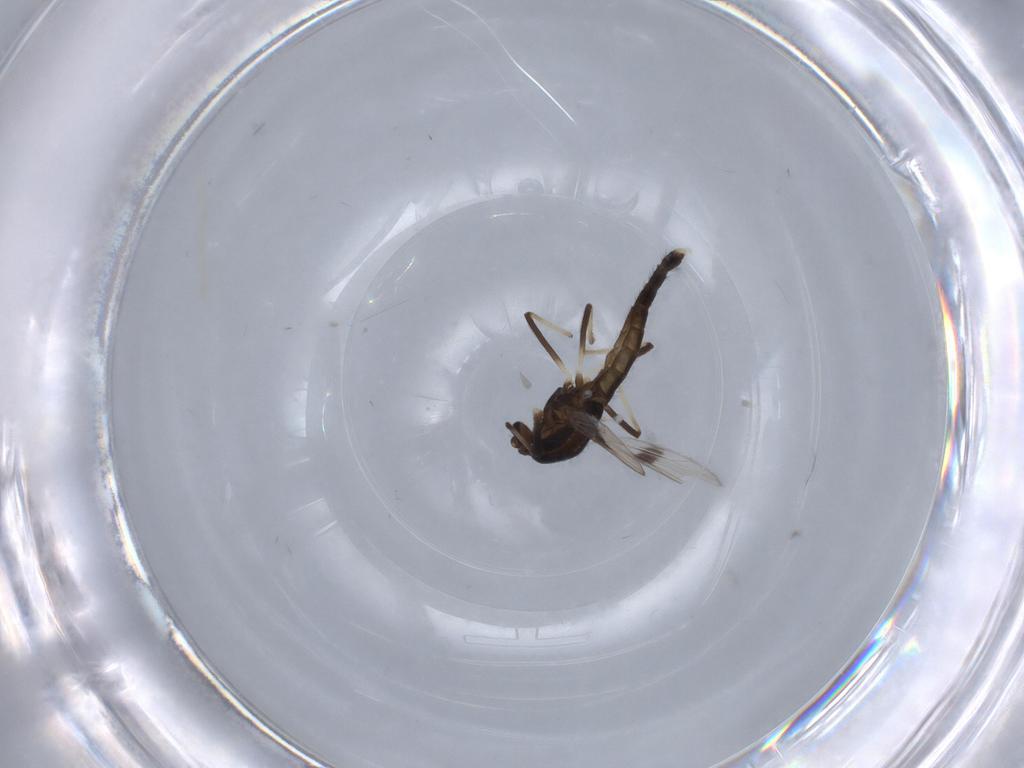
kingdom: Animalia
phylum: Arthropoda
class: Insecta
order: Diptera
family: Chironomidae
